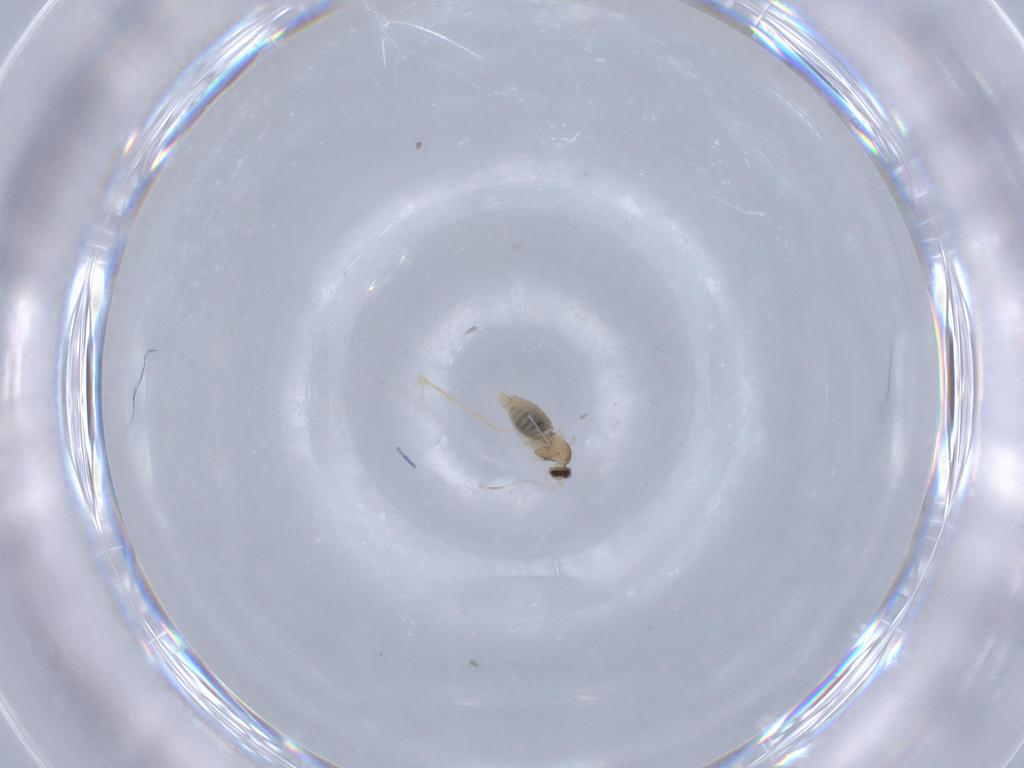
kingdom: Animalia
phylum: Arthropoda
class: Insecta
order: Diptera
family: Cecidomyiidae
